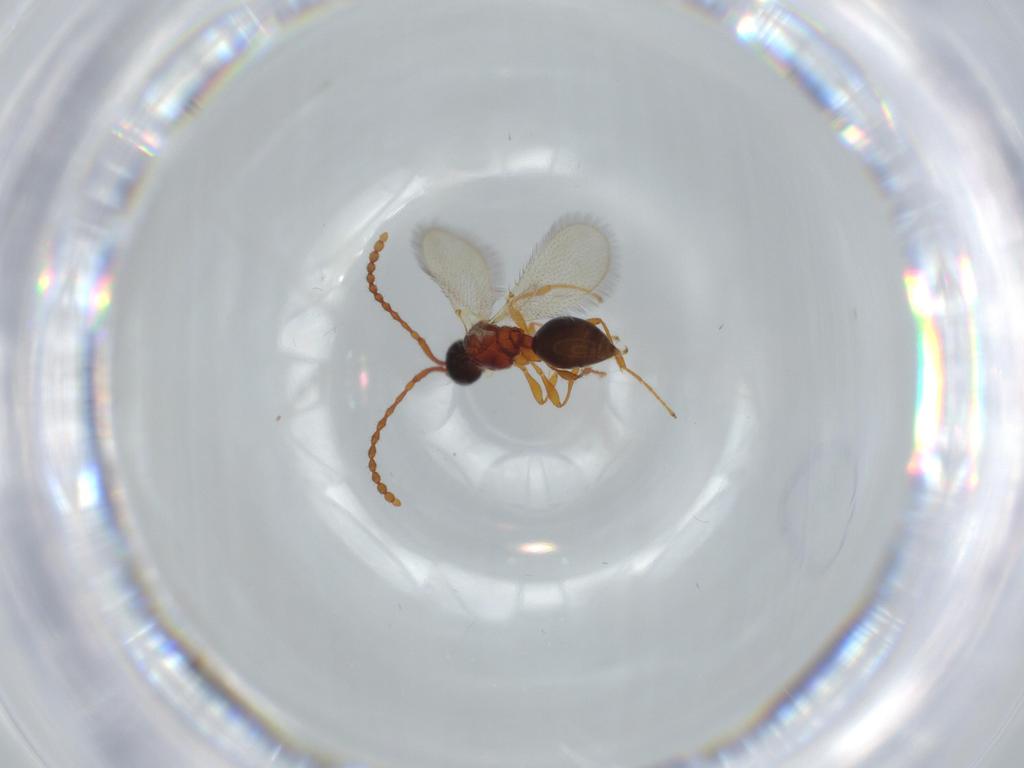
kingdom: Animalia
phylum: Arthropoda
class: Insecta
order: Hymenoptera
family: Diapriidae
